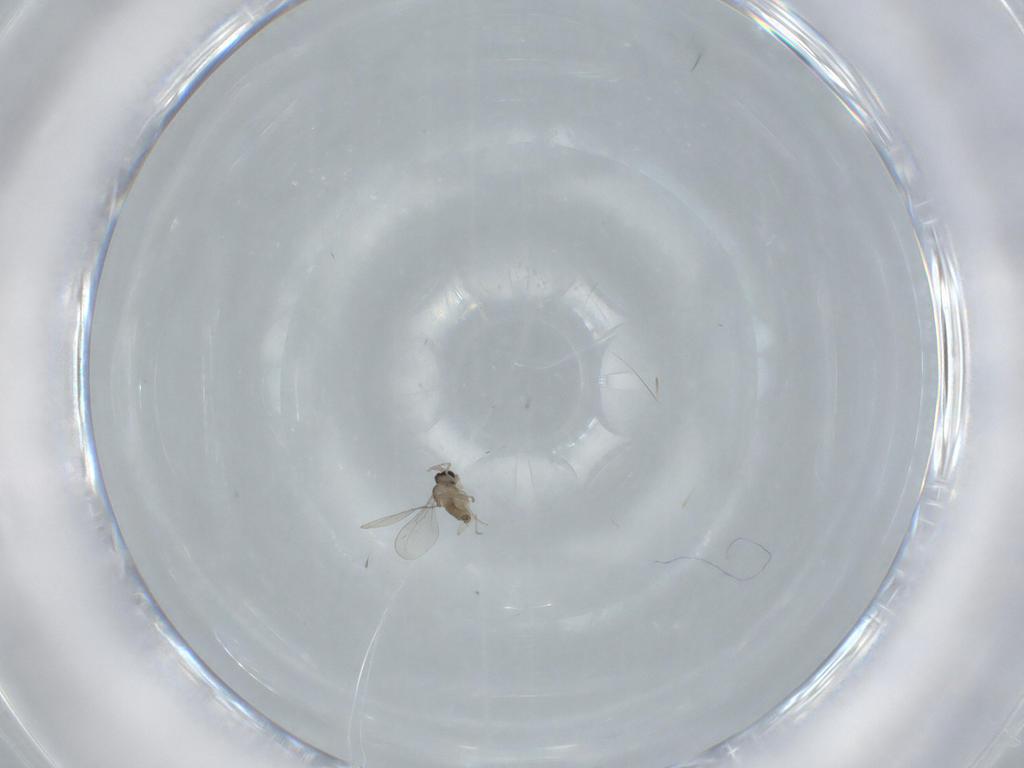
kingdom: Animalia
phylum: Arthropoda
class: Insecta
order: Diptera
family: Cecidomyiidae
